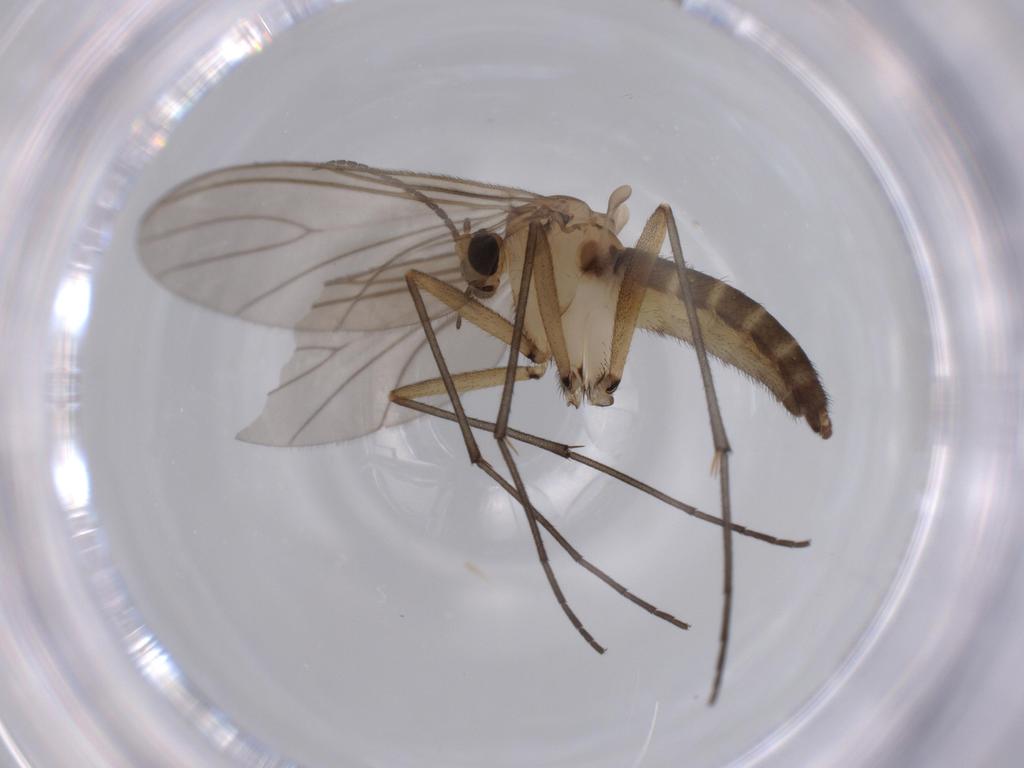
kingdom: Animalia
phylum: Arthropoda
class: Insecta
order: Diptera
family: Sciaridae
